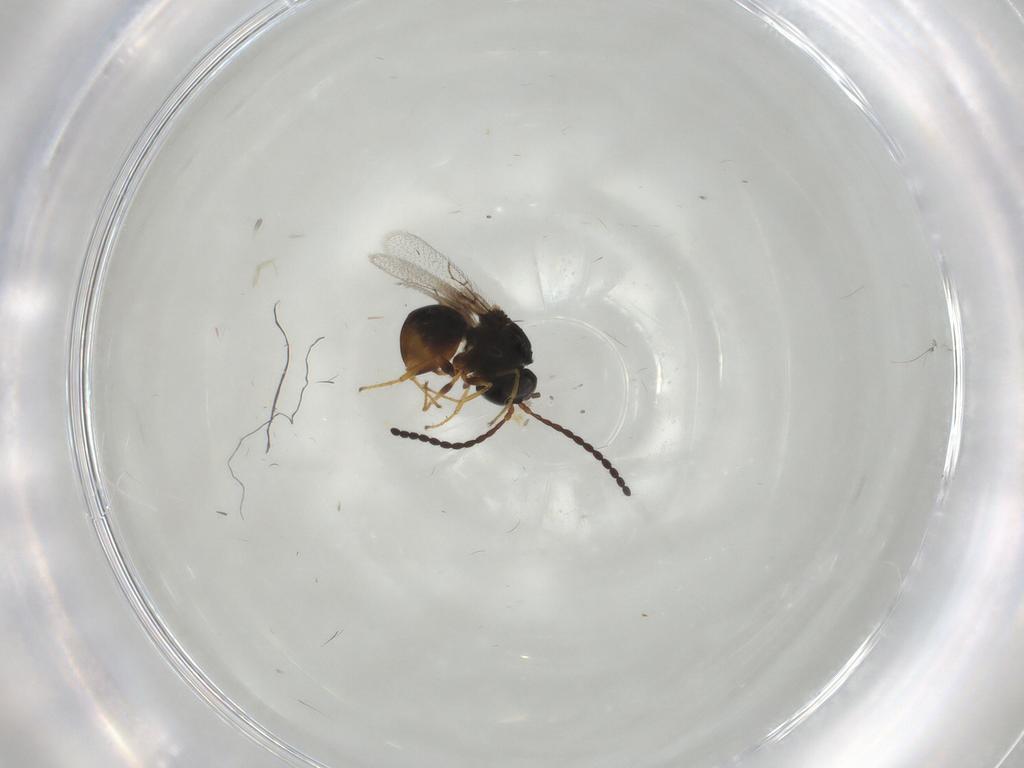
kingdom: Animalia
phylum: Arthropoda
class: Insecta
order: Hymenoptera
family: Figitidae
